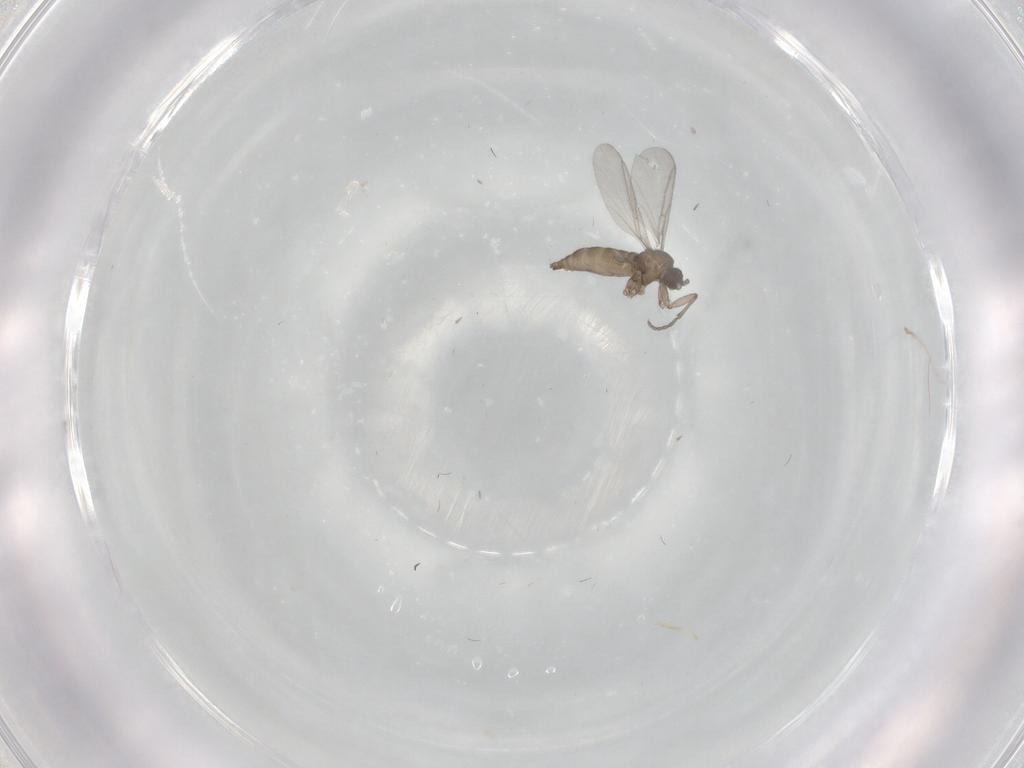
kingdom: Animalia
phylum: Arthropoda
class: Insecta
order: Diptera
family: Sciaridae
